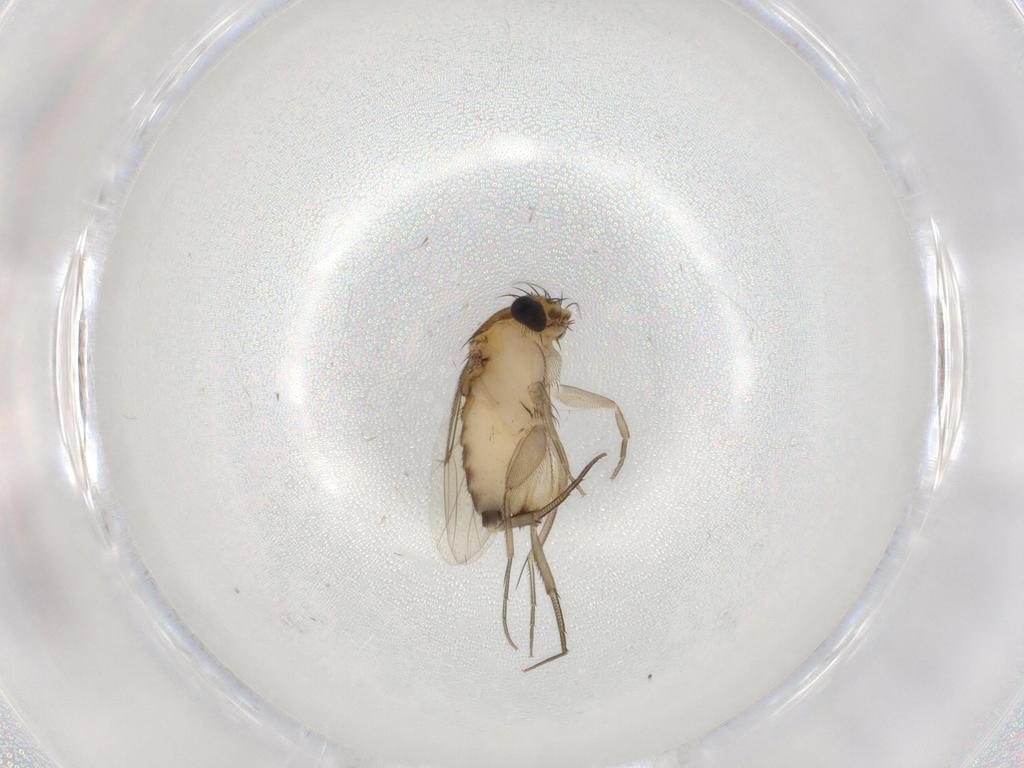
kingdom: Animalia
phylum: Arthropoda
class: Insecta
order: Diptera
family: Phoridae
